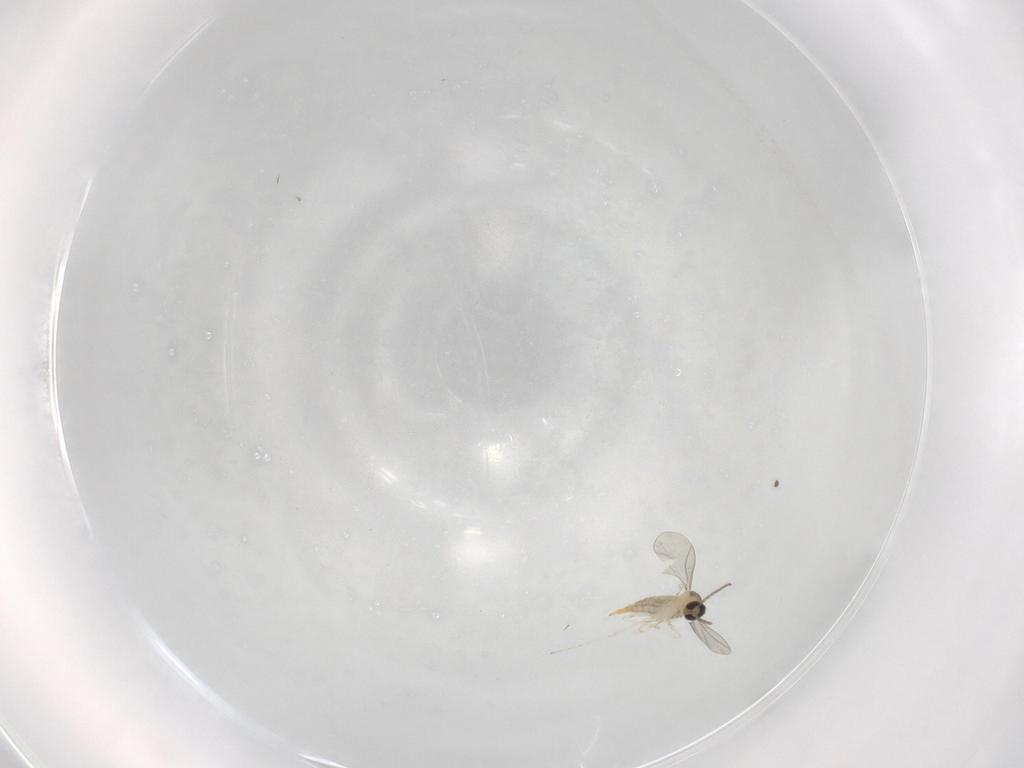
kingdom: Animalia
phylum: Arthropoda
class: Insecta
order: Diptera
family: Cecidomyiidae
